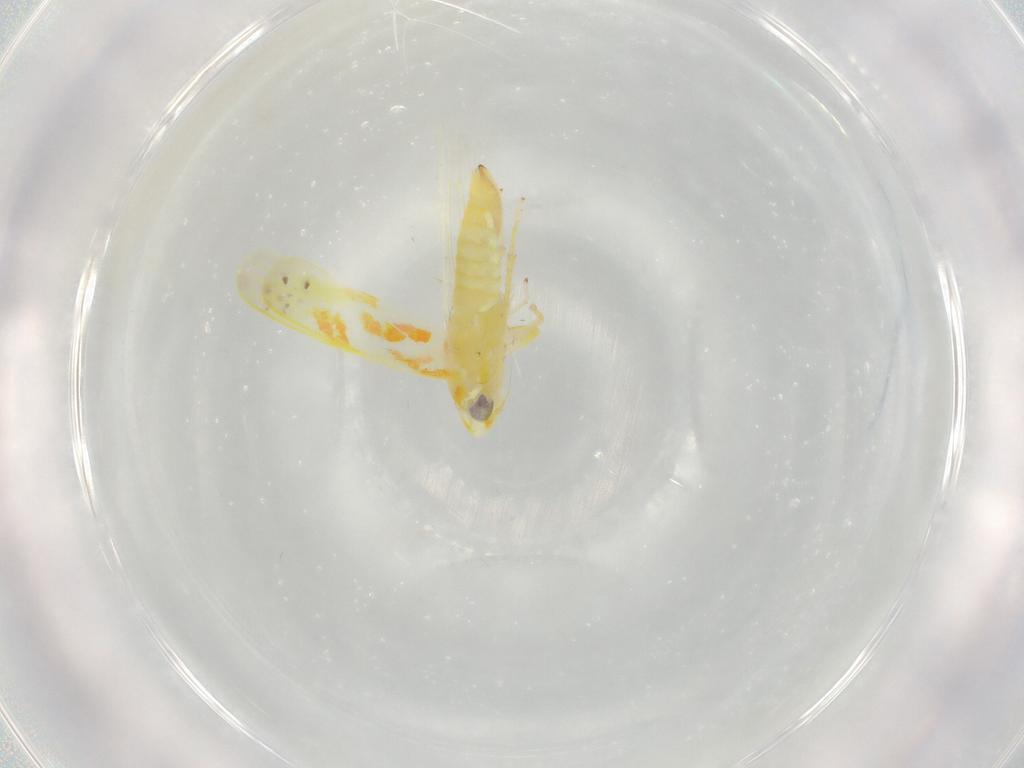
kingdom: Animalia
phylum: Arthropoda
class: Insecta
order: Hemiptera
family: Cicadellidae
